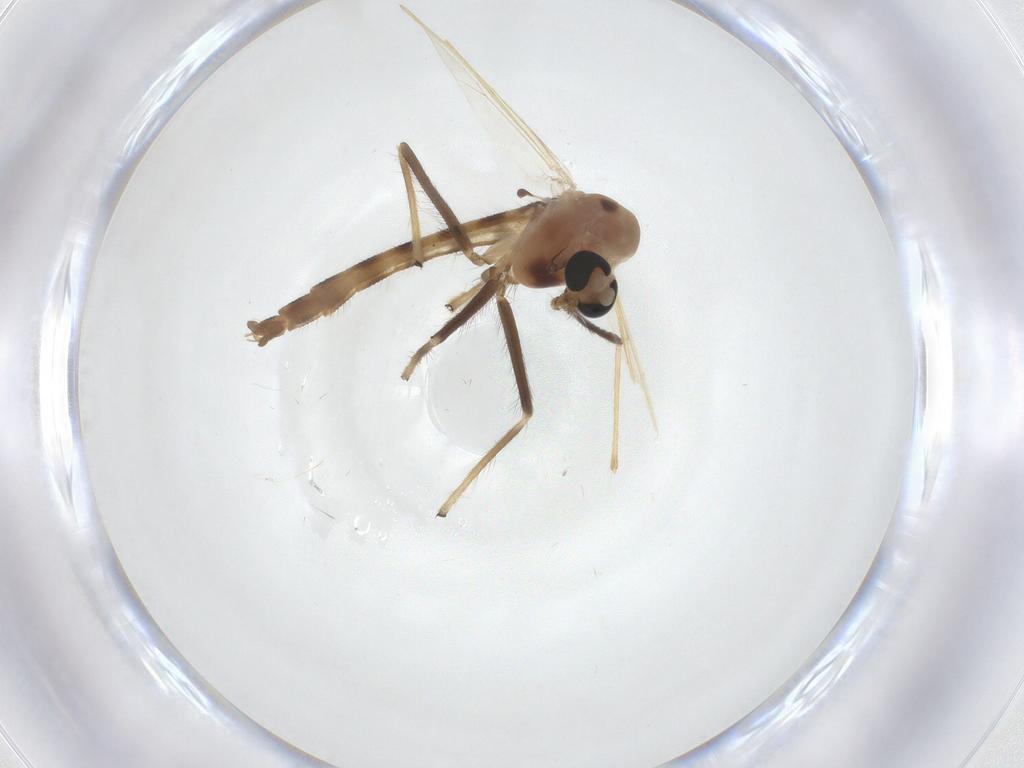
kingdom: Animalia
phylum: Arthropoda
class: Insecta
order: Diptera
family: Chironomidae
